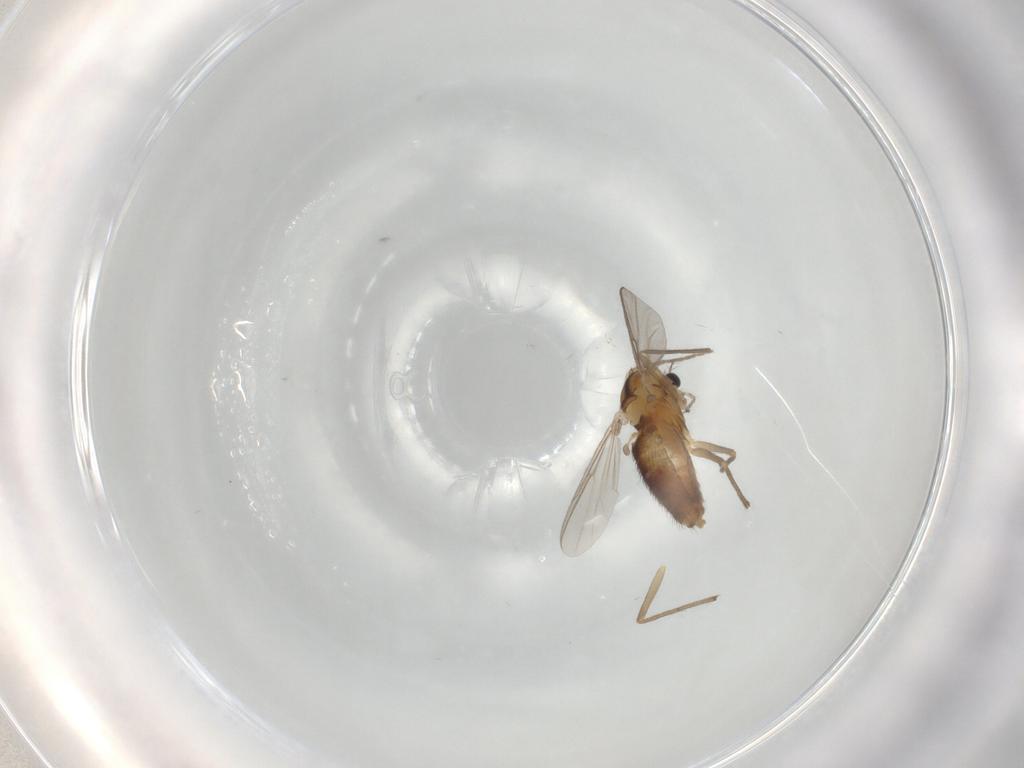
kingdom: Animalia
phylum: Arthropoda
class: Insecta
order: Diptera
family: Chironomidae
